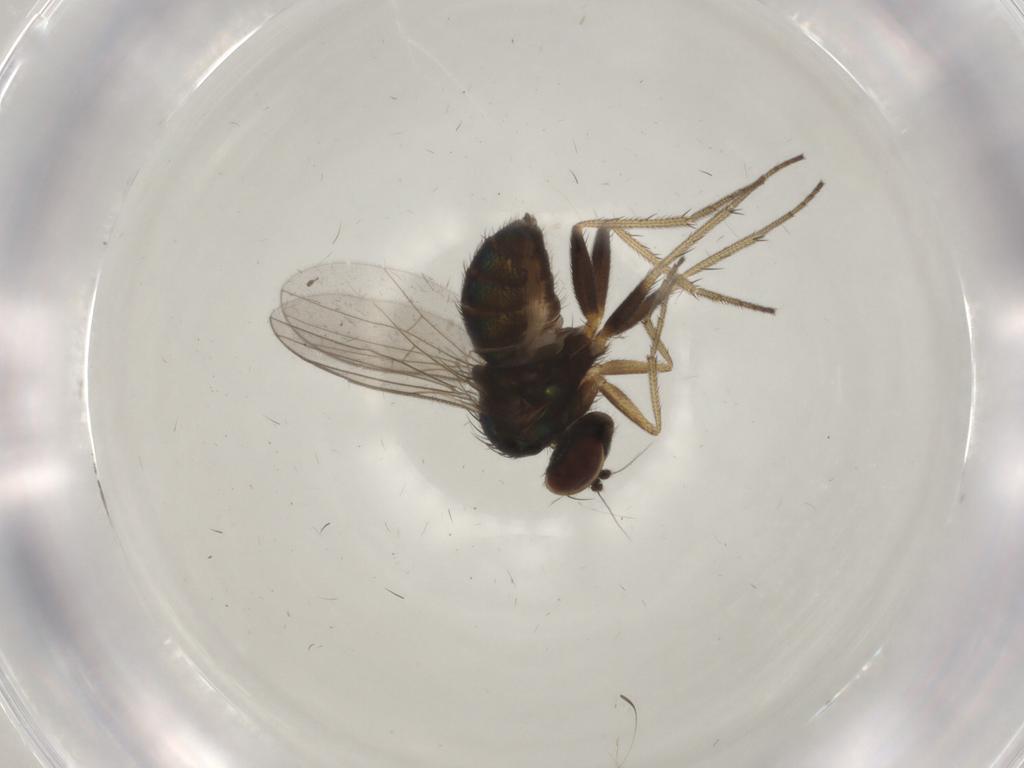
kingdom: Animalia
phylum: Arthropoda
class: Insecta
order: Diptera
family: Dolichopodidae
